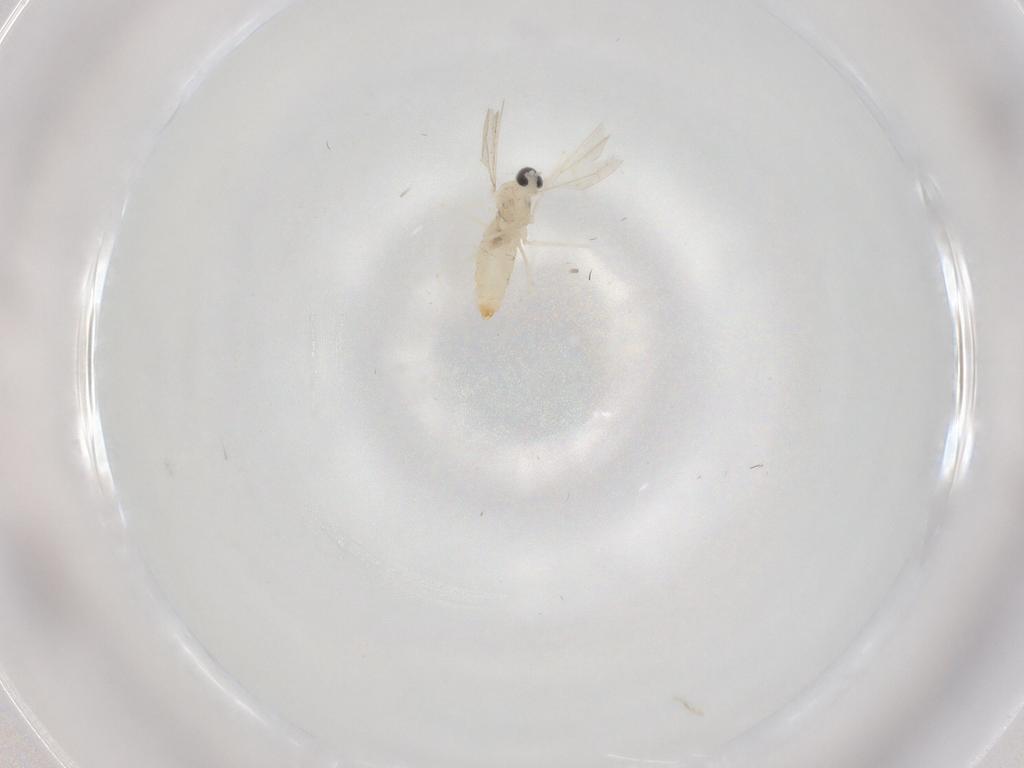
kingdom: Animalia
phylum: Arthropoda
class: Insecta
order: Diptera
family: Cecidomyiidae
